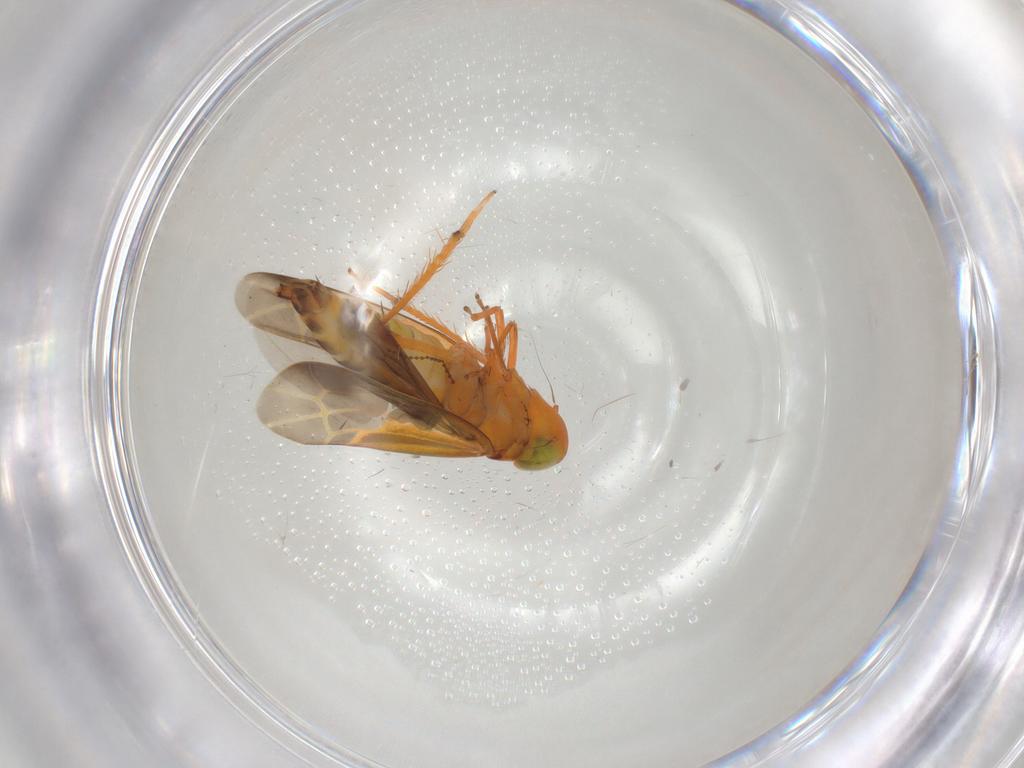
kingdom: Animalia
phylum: Arthropoda
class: Insecta
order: Hemiptera
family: Cicadellidae
